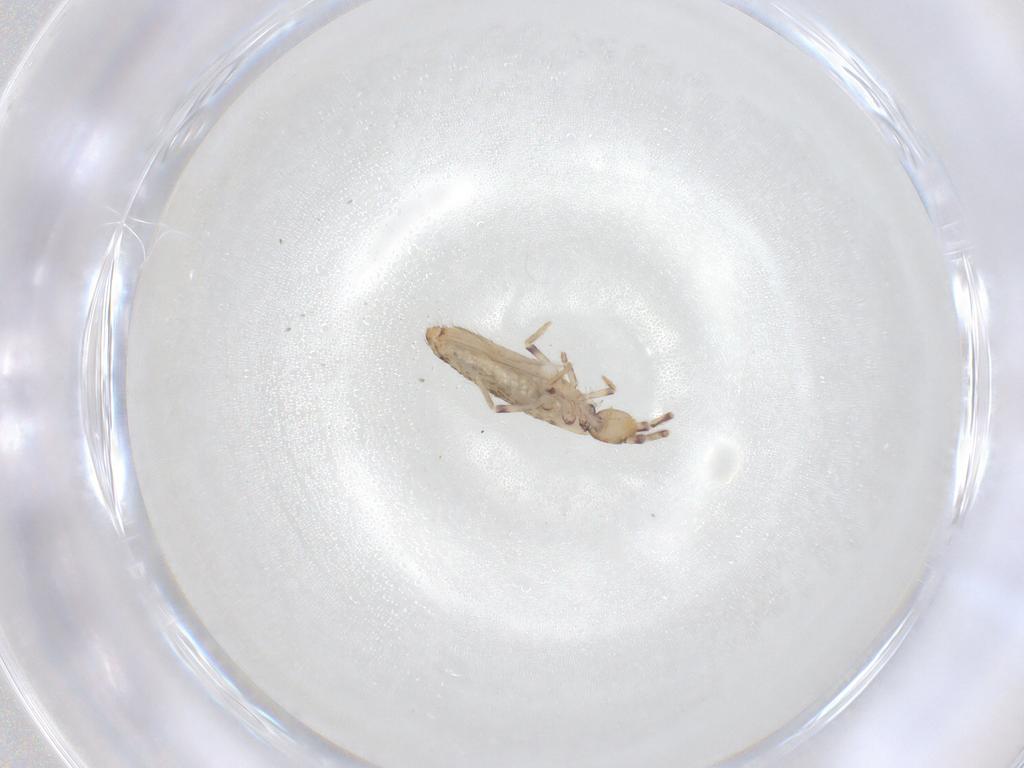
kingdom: Animalia
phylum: Arthropoda
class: Collembola
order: Entomobryomorpha
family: Entomobryidae
